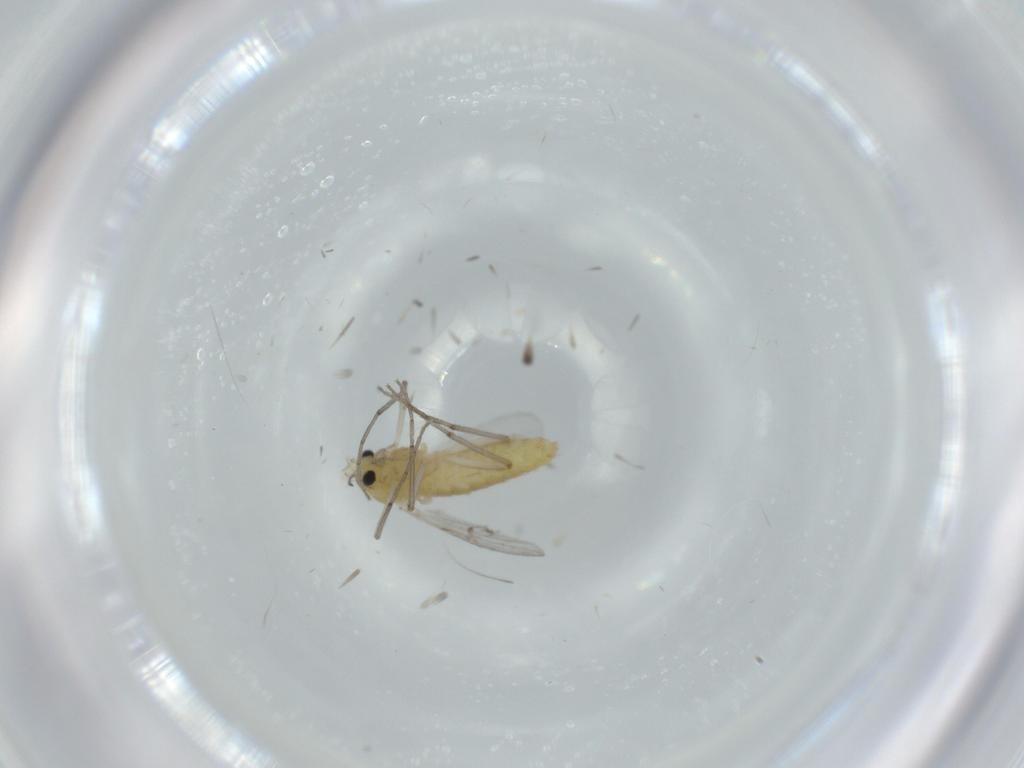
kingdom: Animalia
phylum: Arthropoda
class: Insecta
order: Diptera
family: Chironomidae
